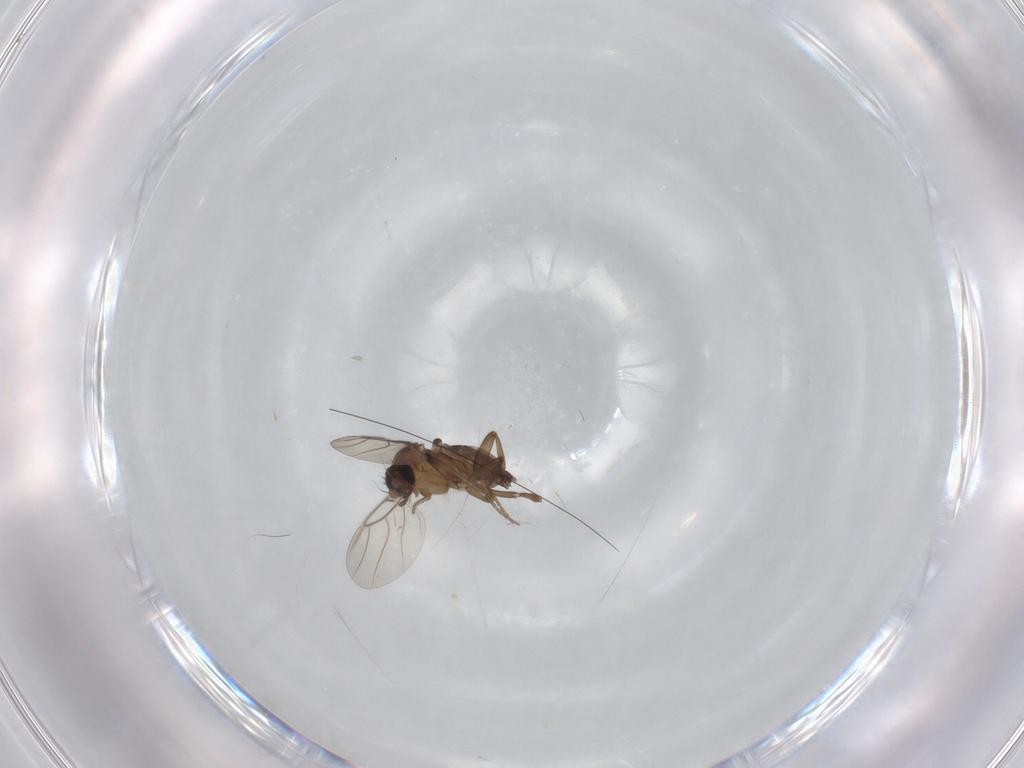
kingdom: Animalia
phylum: Arthropoda
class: Insecta
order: Diptera
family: Phoridae
